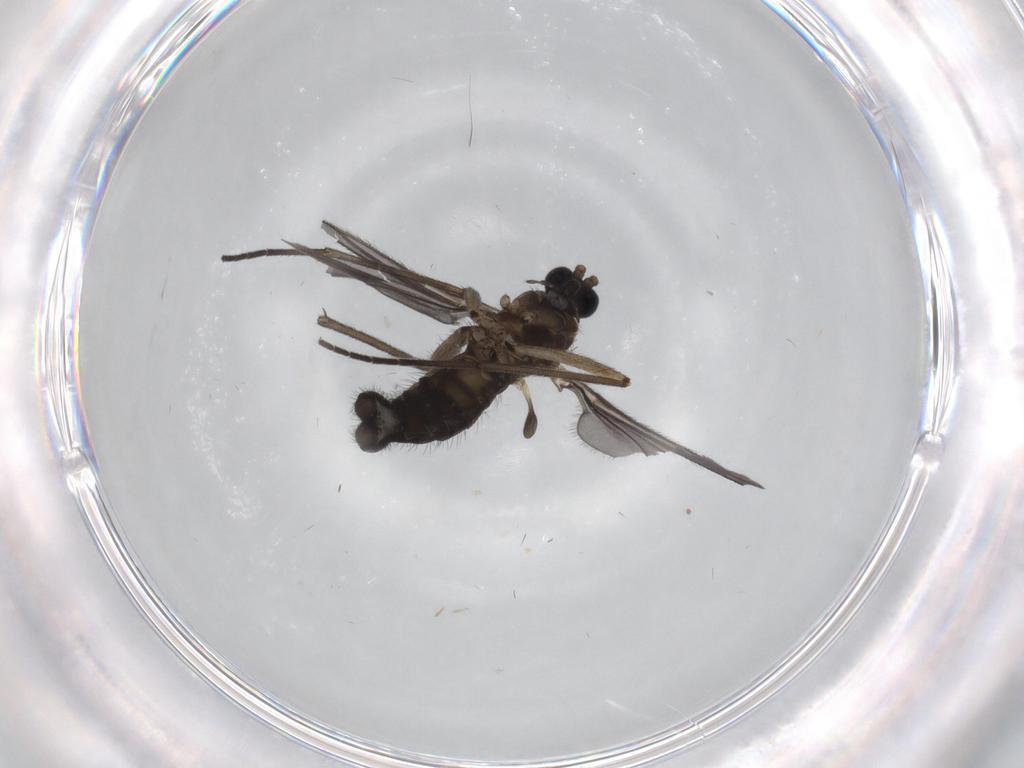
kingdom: Animalia
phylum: Arthropoda
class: Insecta
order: Diptera
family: Sciaridae
